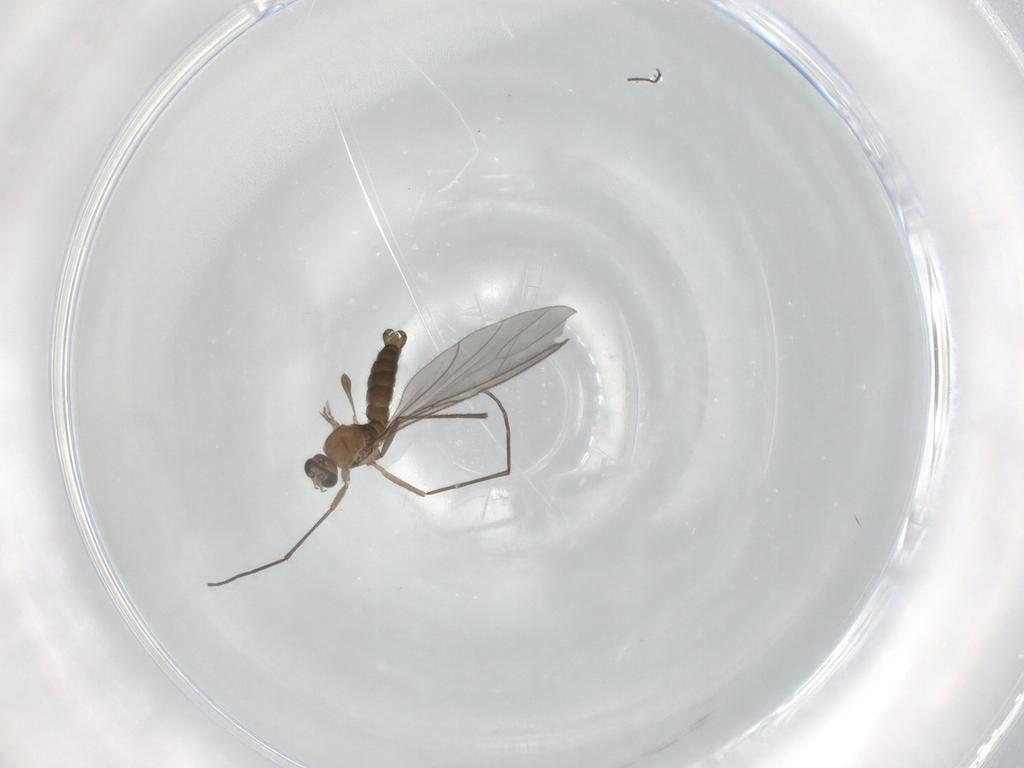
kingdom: Animalia
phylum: Arthropoda
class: Insecta
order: Diptera
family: Sciaridae
